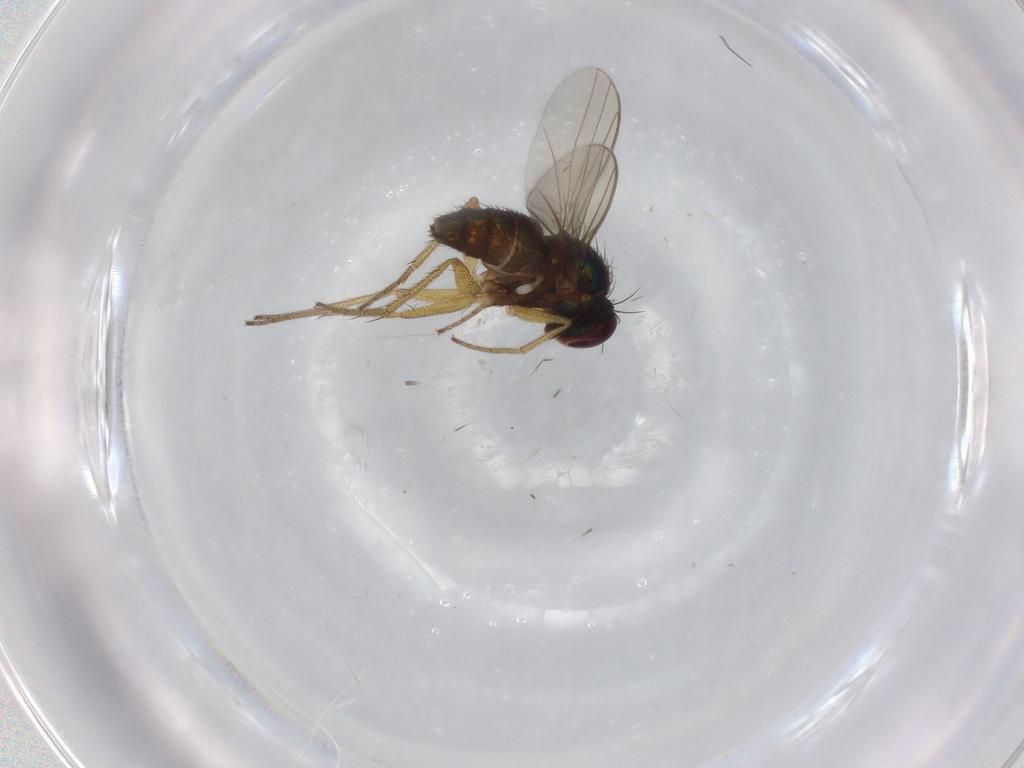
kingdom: Animalia
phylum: Arthropoda
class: Insecta
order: Diptera
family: Dolichopodidae
